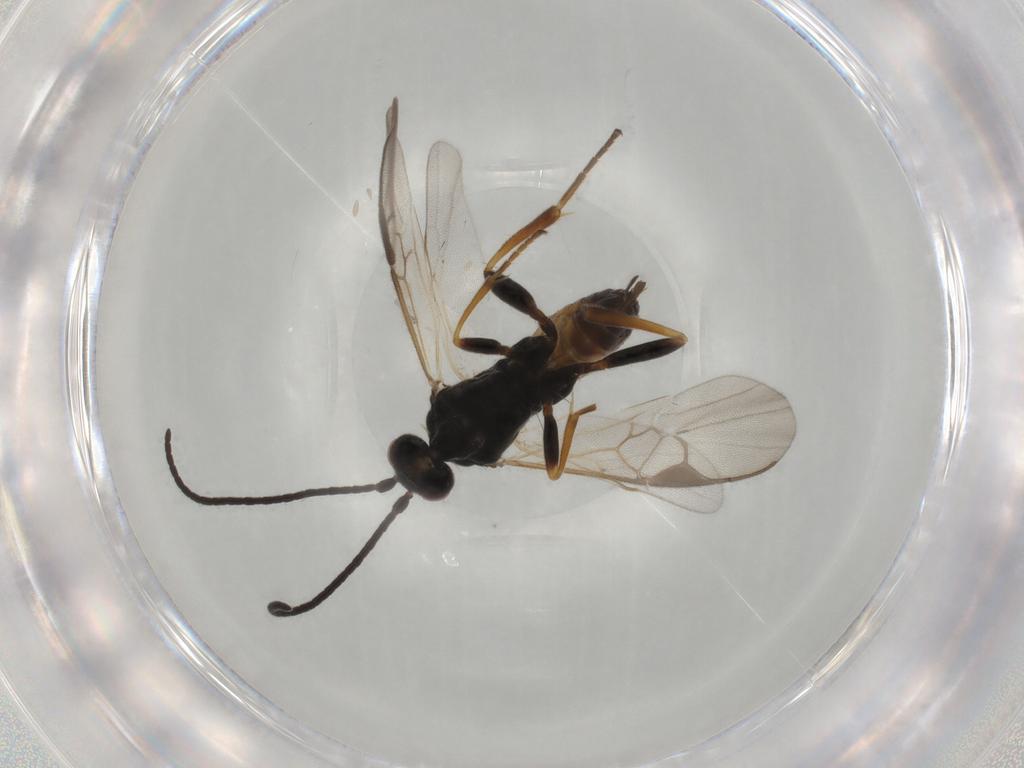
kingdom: Animalia
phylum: Arthropoda
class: Insecta
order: Hymenoptera
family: Braconidae
